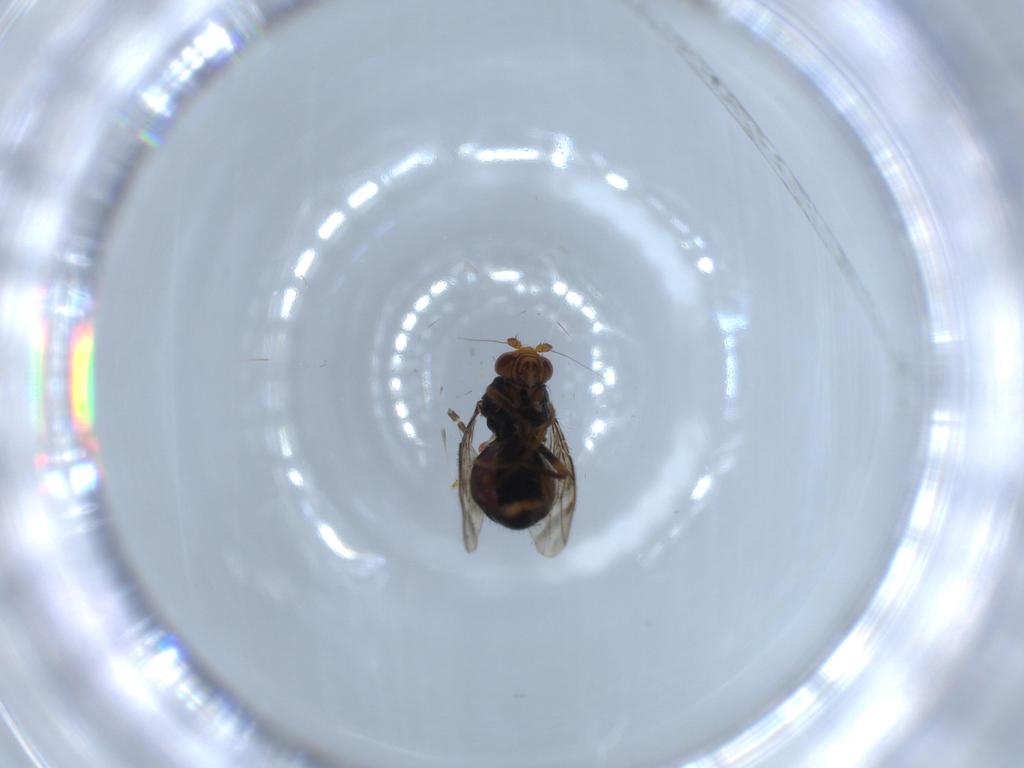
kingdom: Animalia
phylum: Arthropoda
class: Insecta
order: Diptera
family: Sphaeroceridae
